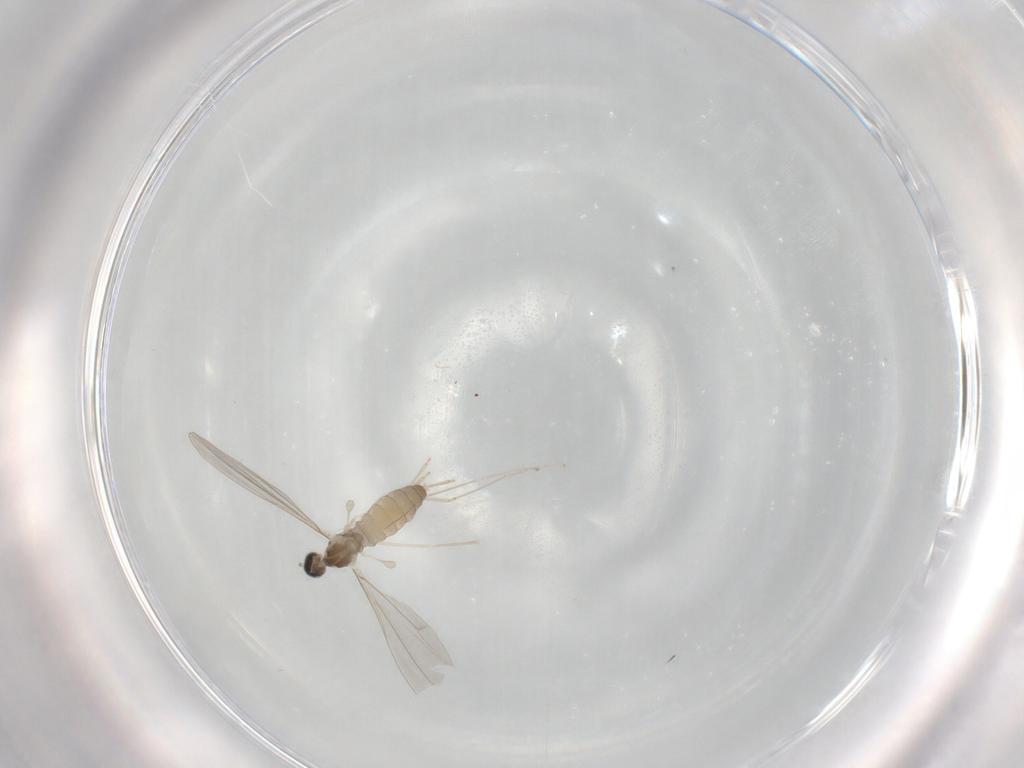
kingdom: Animalia
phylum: Arthropoda
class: Insecta
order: Diptera
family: Cecidomyiidae
